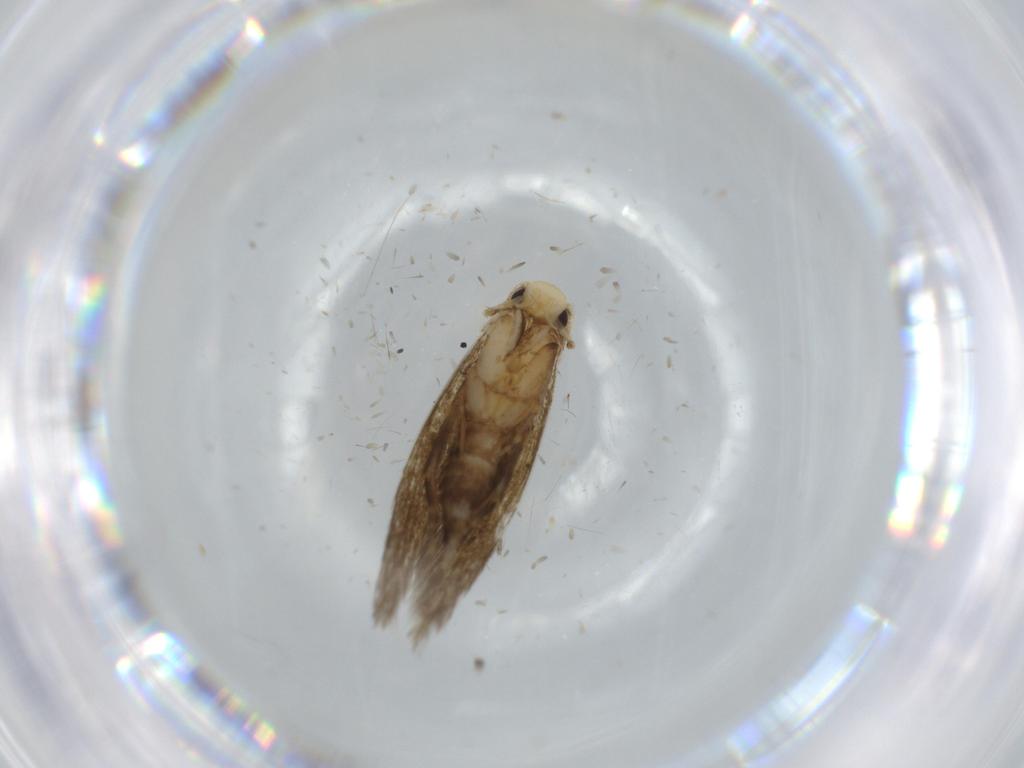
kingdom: Animalia
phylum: Arthropoda
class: Insecta
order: Lepidoptera
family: Tineidae
